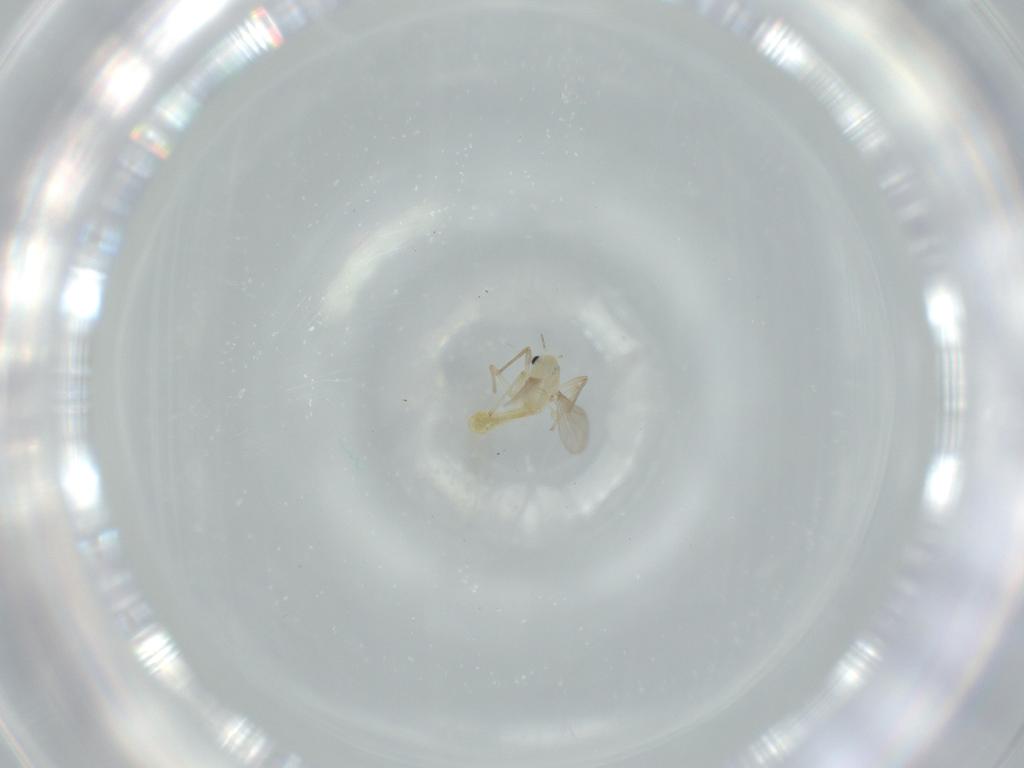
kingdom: Animalia
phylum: Arthropoda
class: Insecta
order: Diptera
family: Chironomidae
